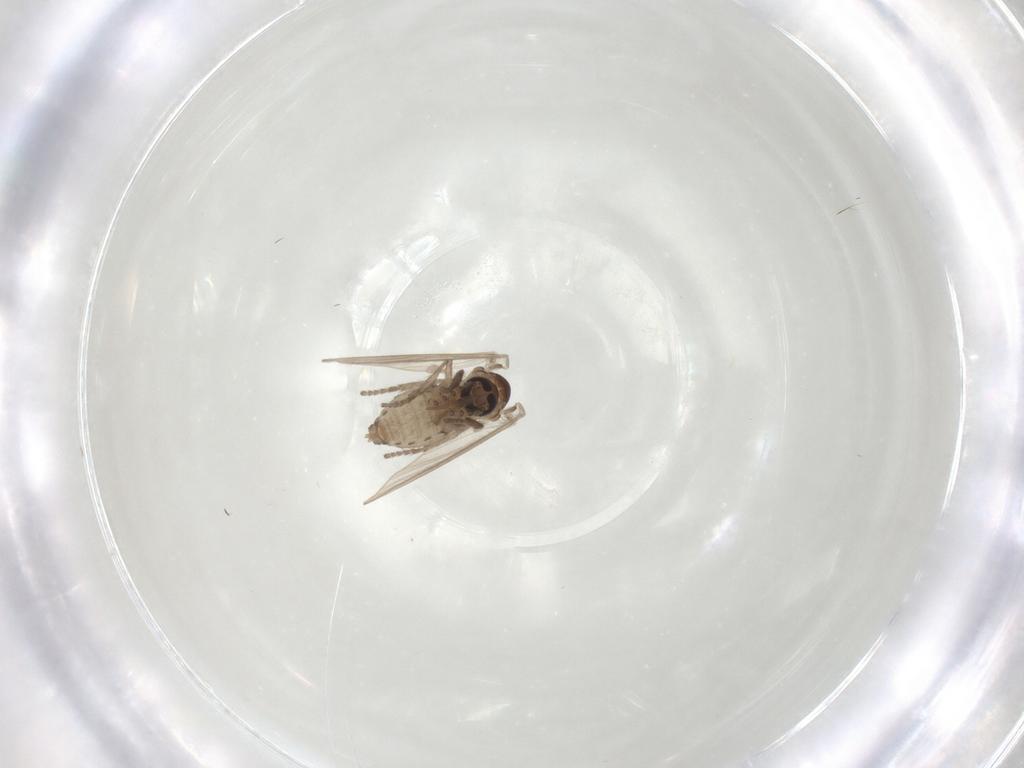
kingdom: Animalia
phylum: Arthropoda
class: Insecta
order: Diptera
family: Psychodidae
